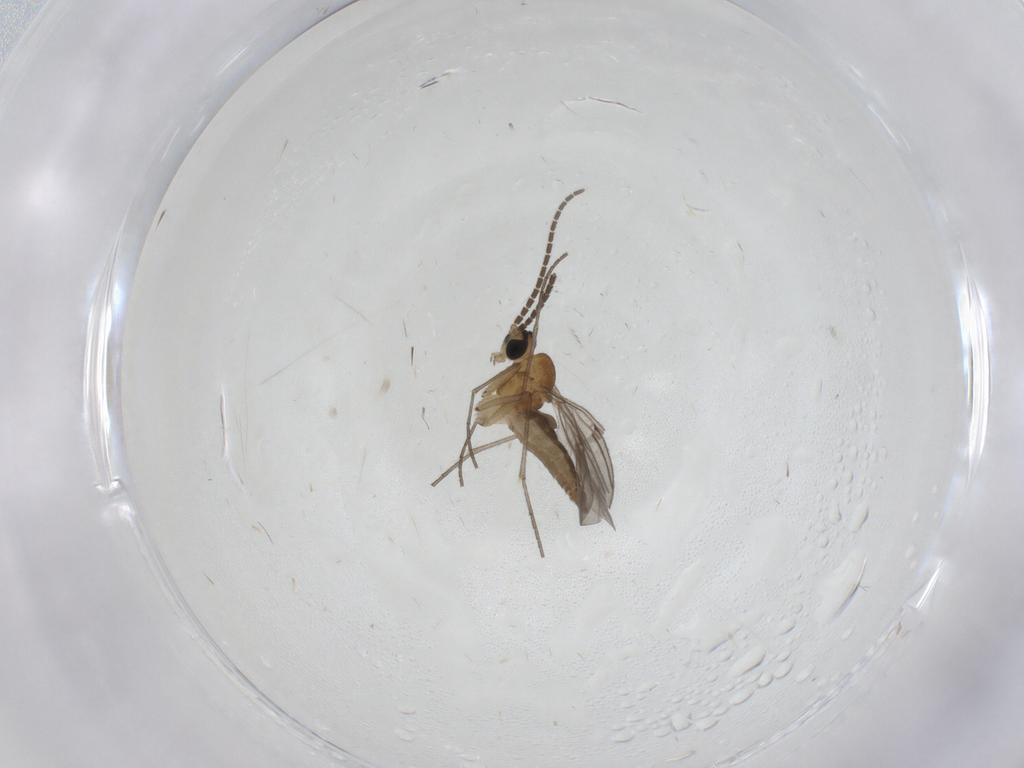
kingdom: Animalia
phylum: Arthropoda
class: Insecta
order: Diptera
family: Sciaridae
